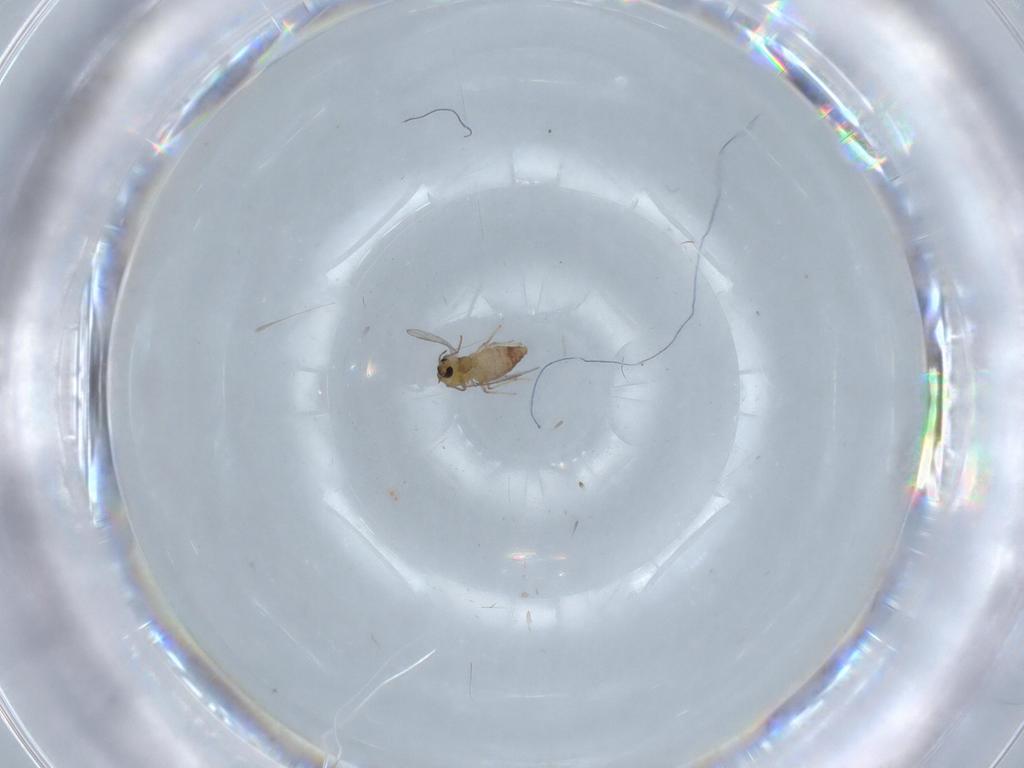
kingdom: Animalia
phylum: Arthropoda
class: Insecta
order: Diptera
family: Chironomidae
